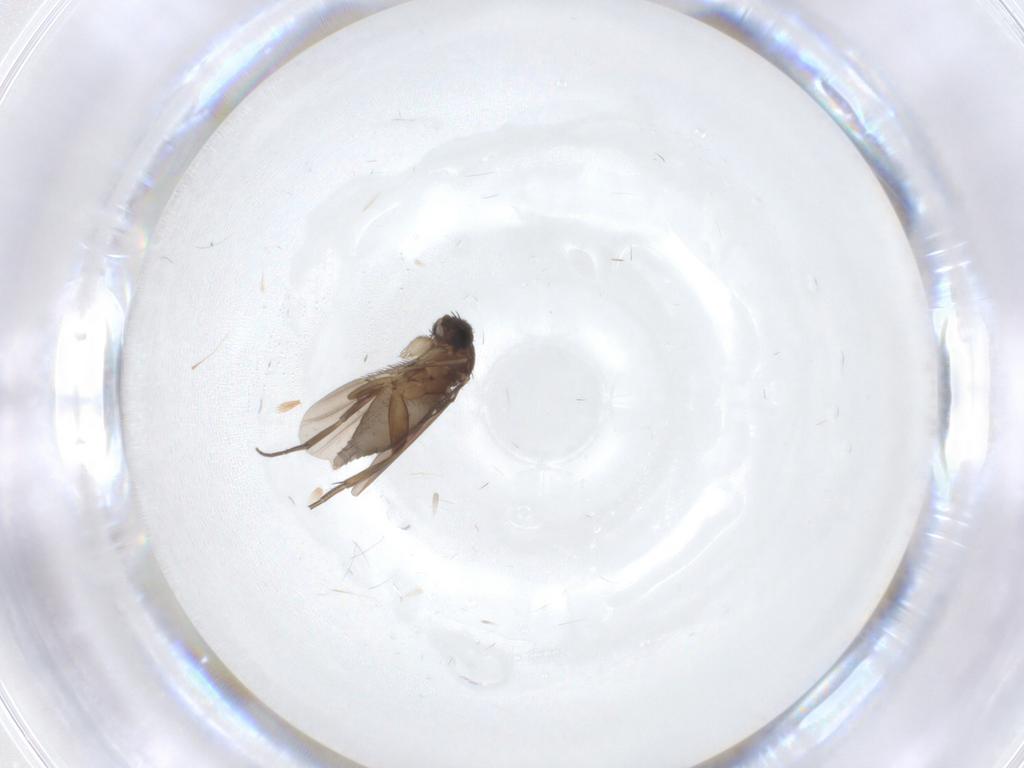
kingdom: Animalia
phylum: Arthropoda
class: Insecta
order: Diptera
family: Phoridae
